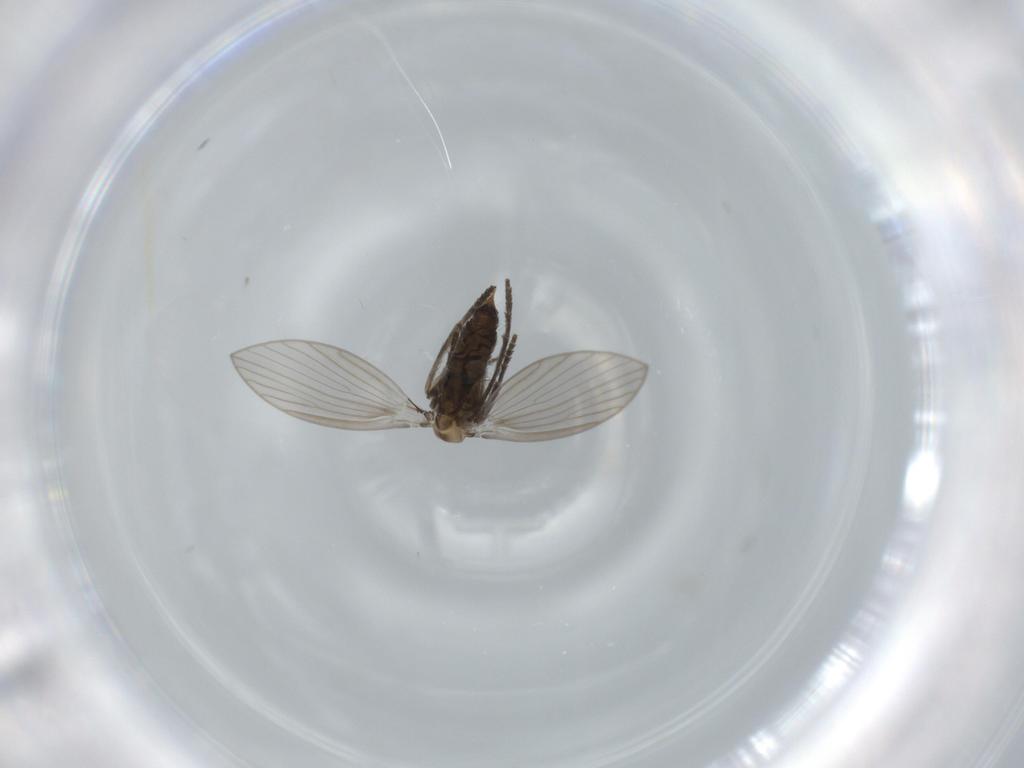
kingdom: Animalia
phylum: Arthropoda
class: Insecta
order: Diptera
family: Psychodidae
